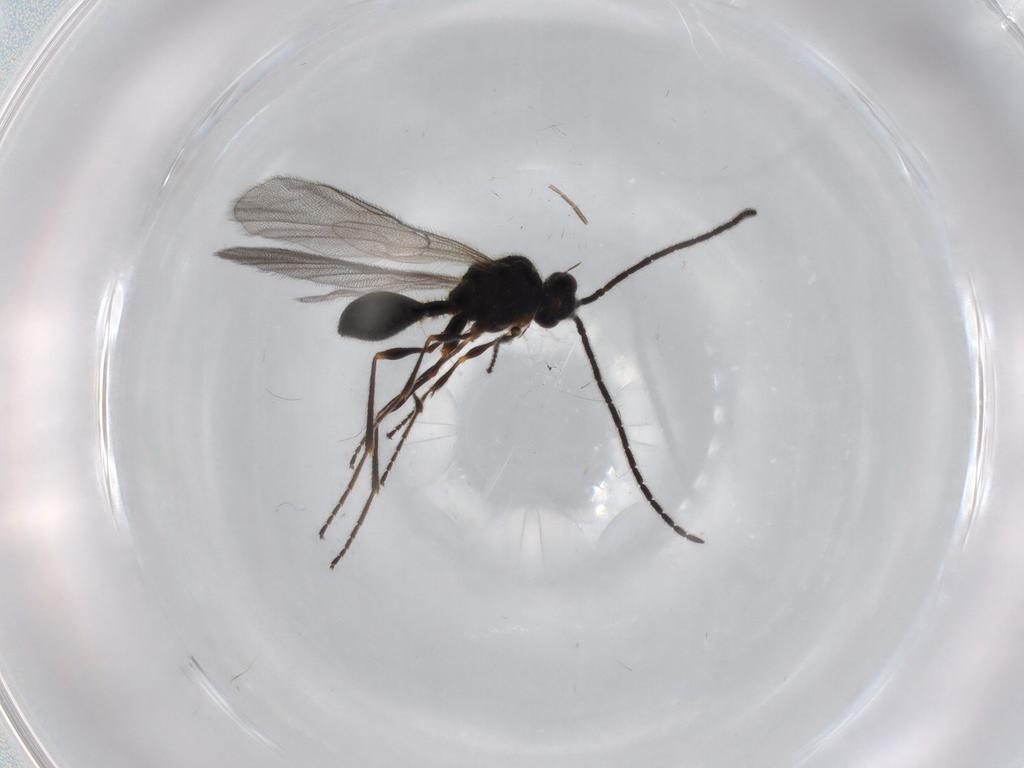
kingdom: Animalia
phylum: Arthropoda
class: Insecta
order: Hymenoptera
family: Diapriidae
